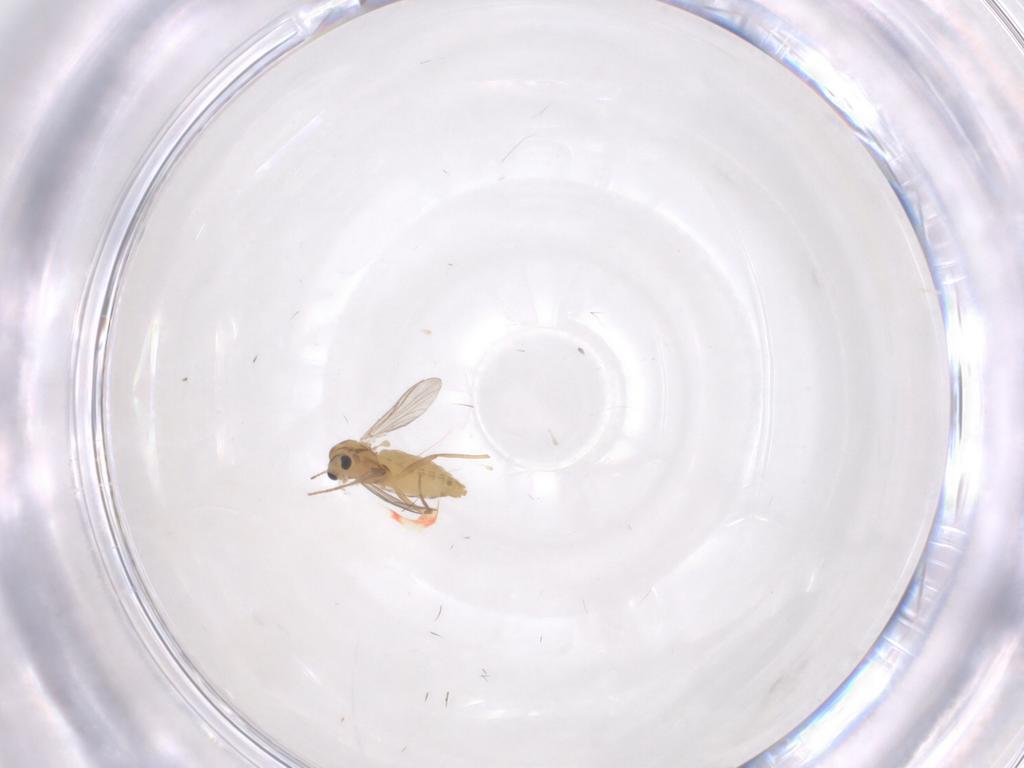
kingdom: Animalia
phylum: Arthropoda
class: Insecta
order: Diptera
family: Chironomidae
